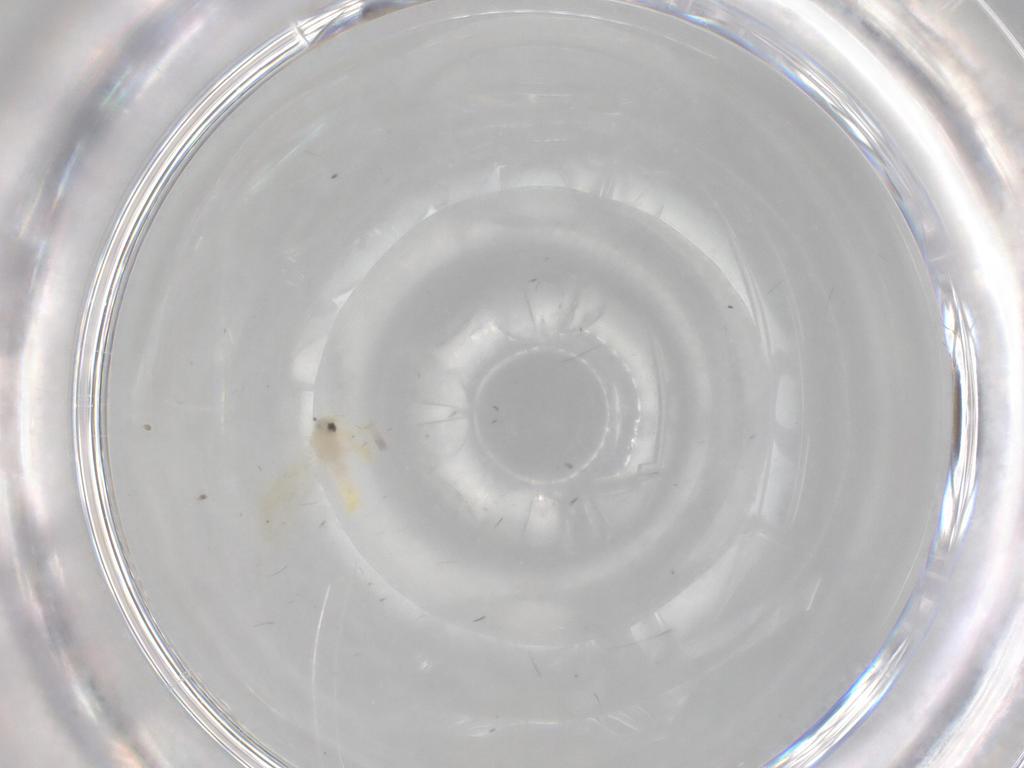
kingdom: Animalia
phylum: Arthropoda
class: Insecta
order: Hemiptera
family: Aleyrodidae
